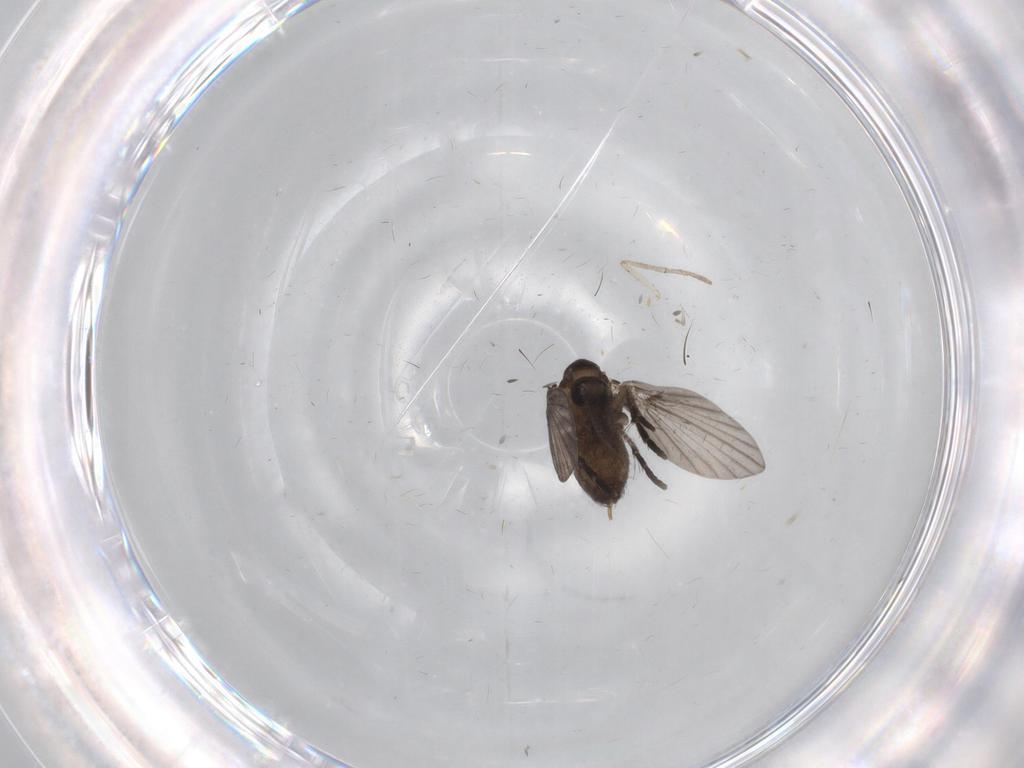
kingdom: Animalia
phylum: Arthropoda
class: Insecta
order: Diptera
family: Psychodidae
